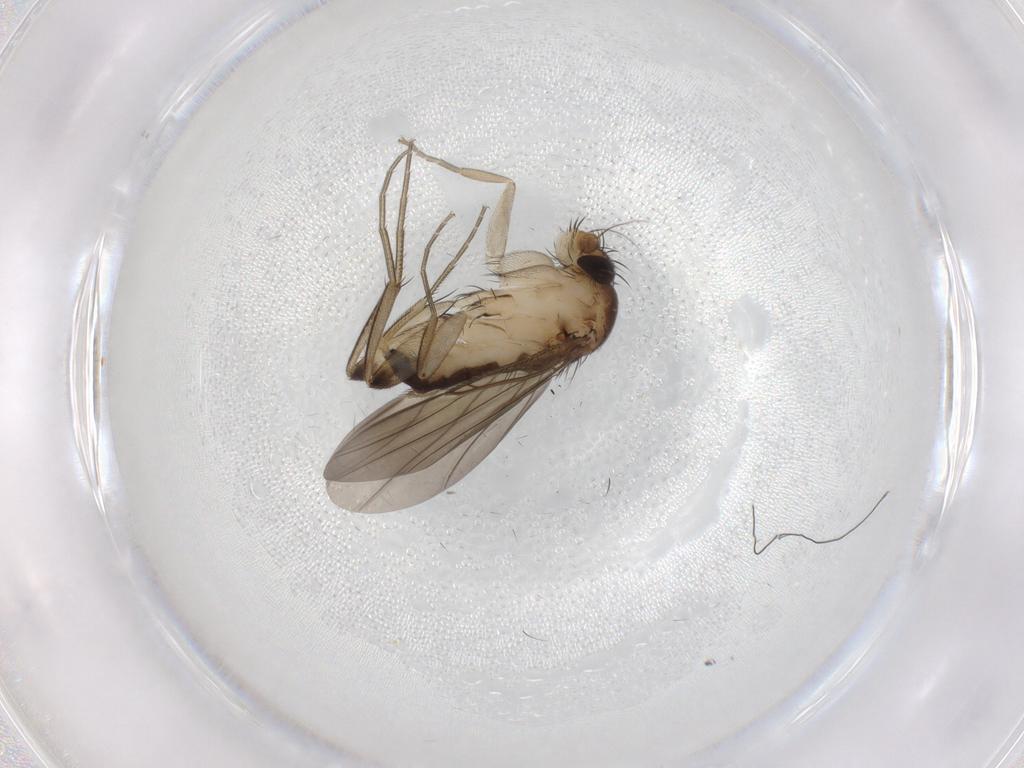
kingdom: Animalia
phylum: Arthropoda
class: Insecta
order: Diptera
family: Phoridae
